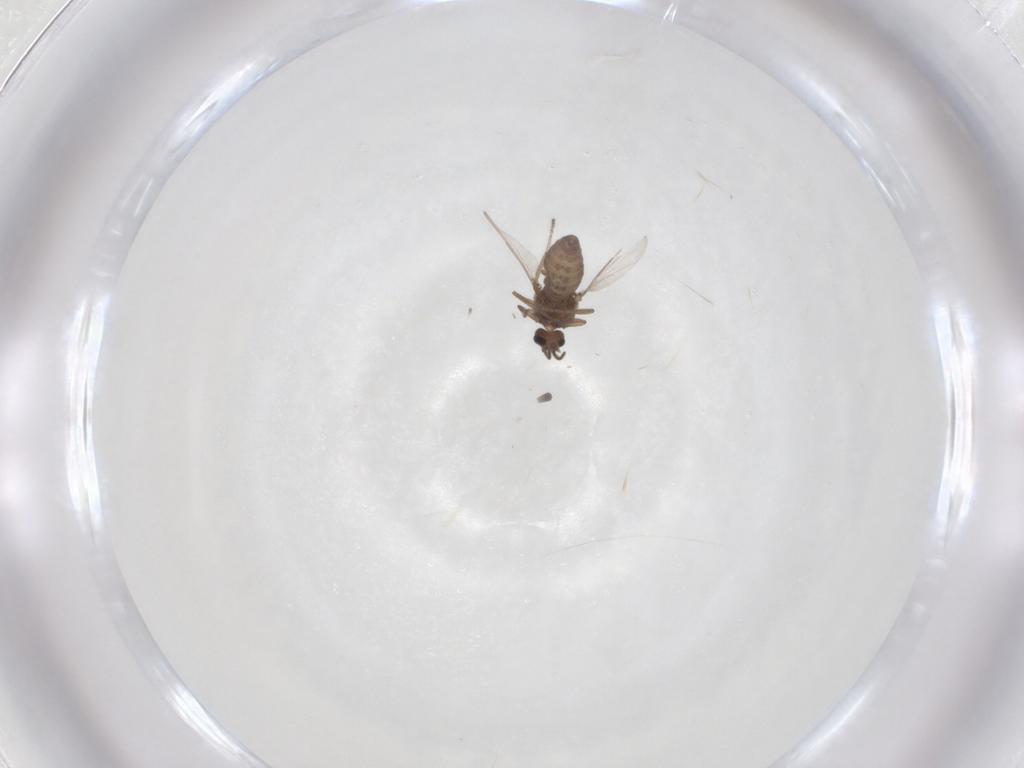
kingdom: Animalia
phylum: Arthropoda
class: Insecta
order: Diptera
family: Ceratopogonidae
